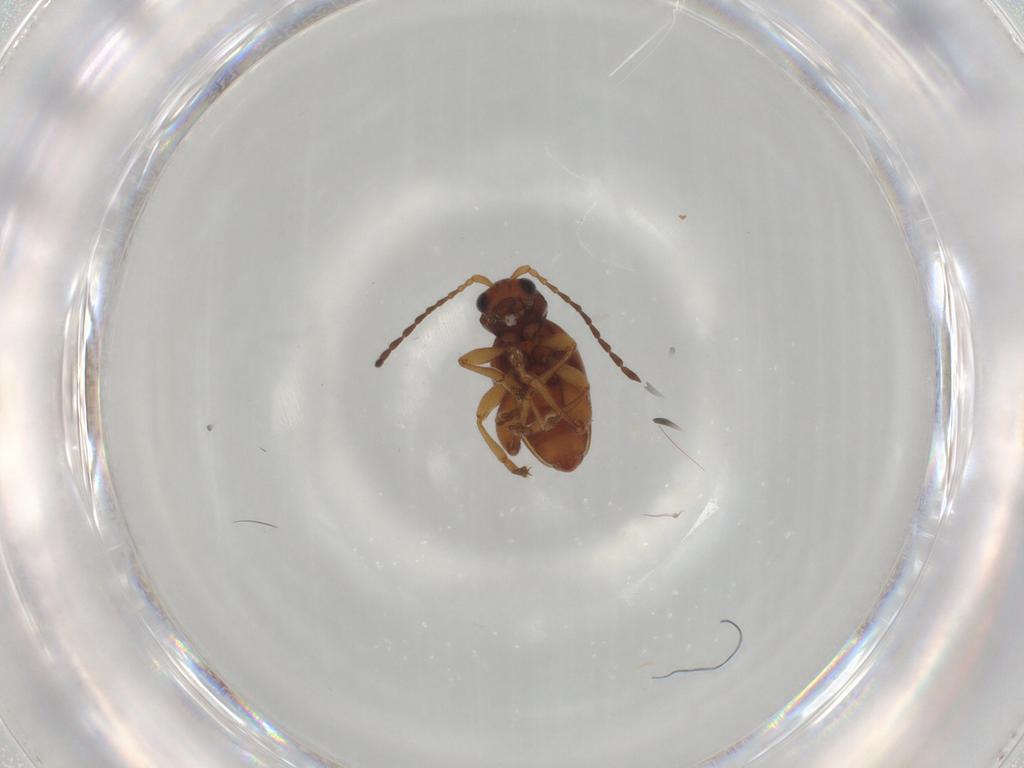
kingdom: Animalia
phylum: Arthropoda
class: Insecta
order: Coleoptera
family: Chrysomelidae
